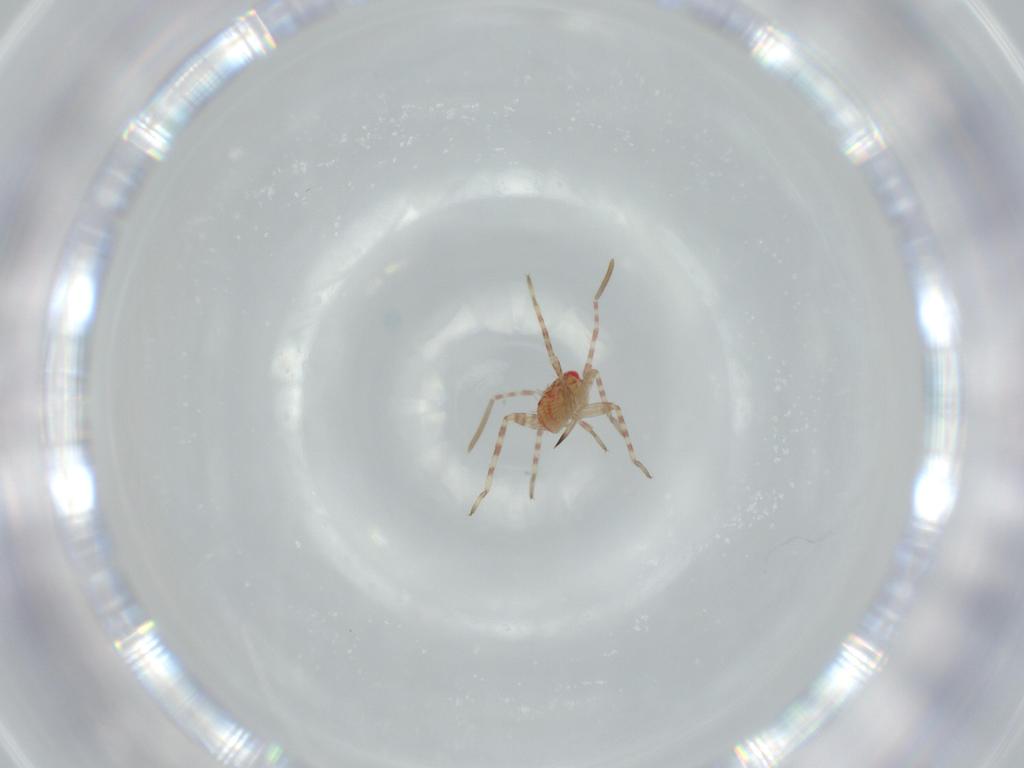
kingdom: Animalia
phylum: Arthropoda
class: Insecta
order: Hemiptera
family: Miridae
